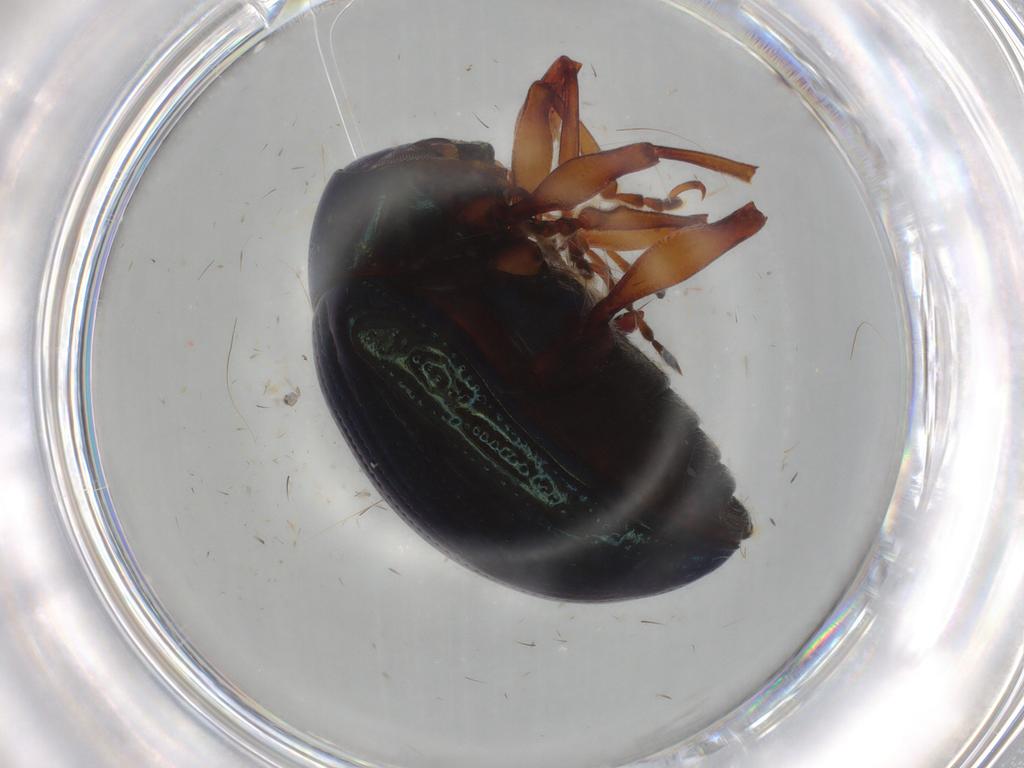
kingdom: Animalia
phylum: Arthropoda
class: Insecta
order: Coleoptera
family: Chrysomelidae
